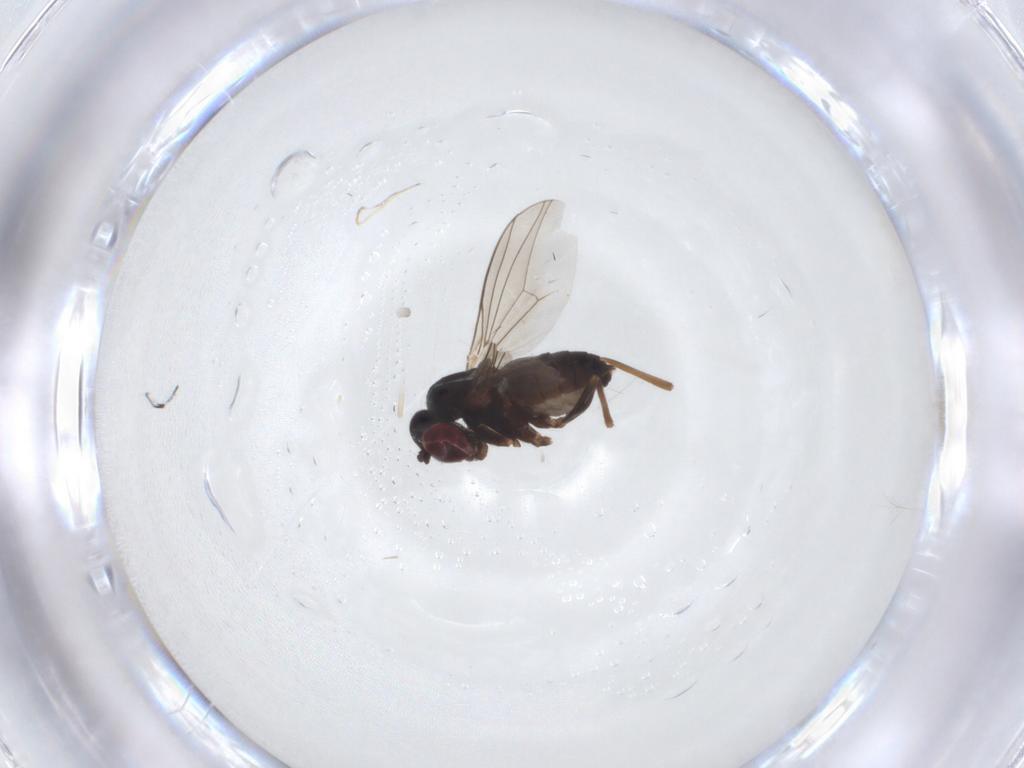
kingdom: Animalia
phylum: Arthropoda
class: Insecta
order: Diptera
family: Dolichopodidae
